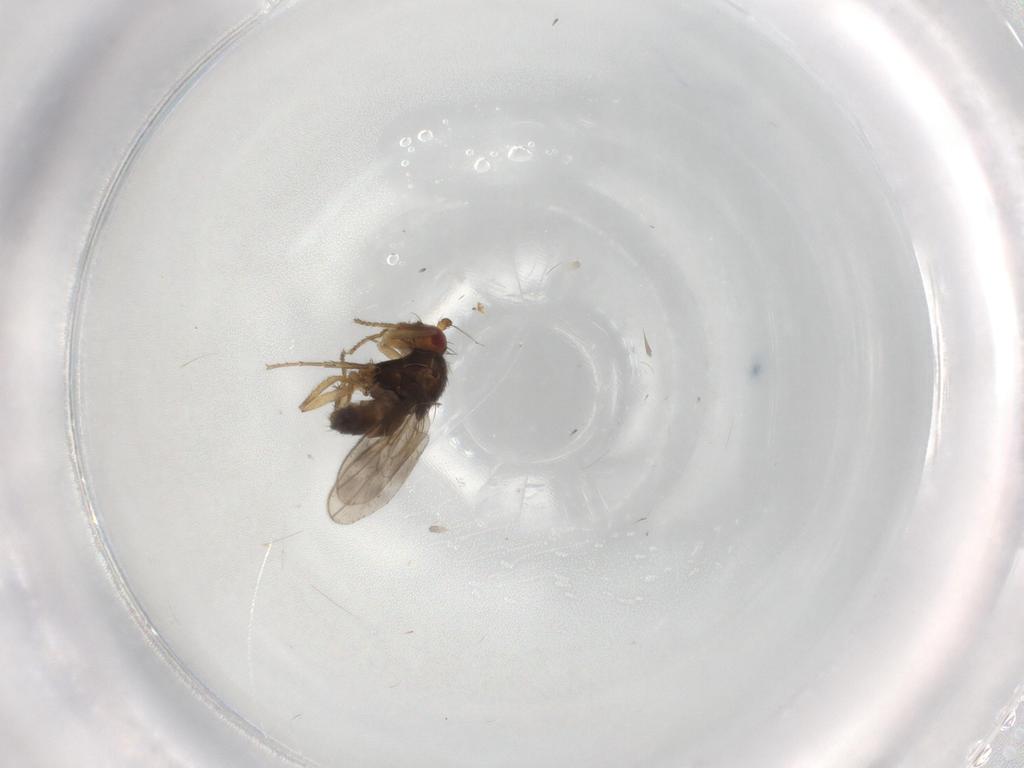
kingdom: Animalia
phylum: Arthropoda
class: Insecta
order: Diptera
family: Sphaeroceridae
